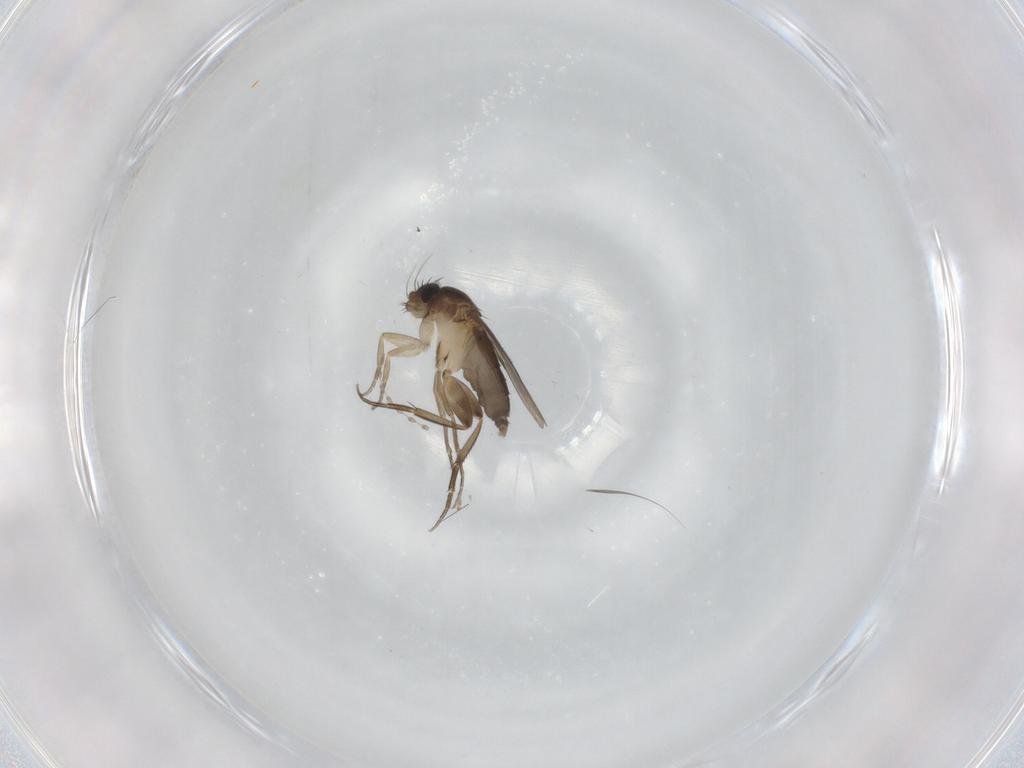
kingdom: Animalia
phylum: Arthropoda
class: Insecta
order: Diptera
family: Phoridae
